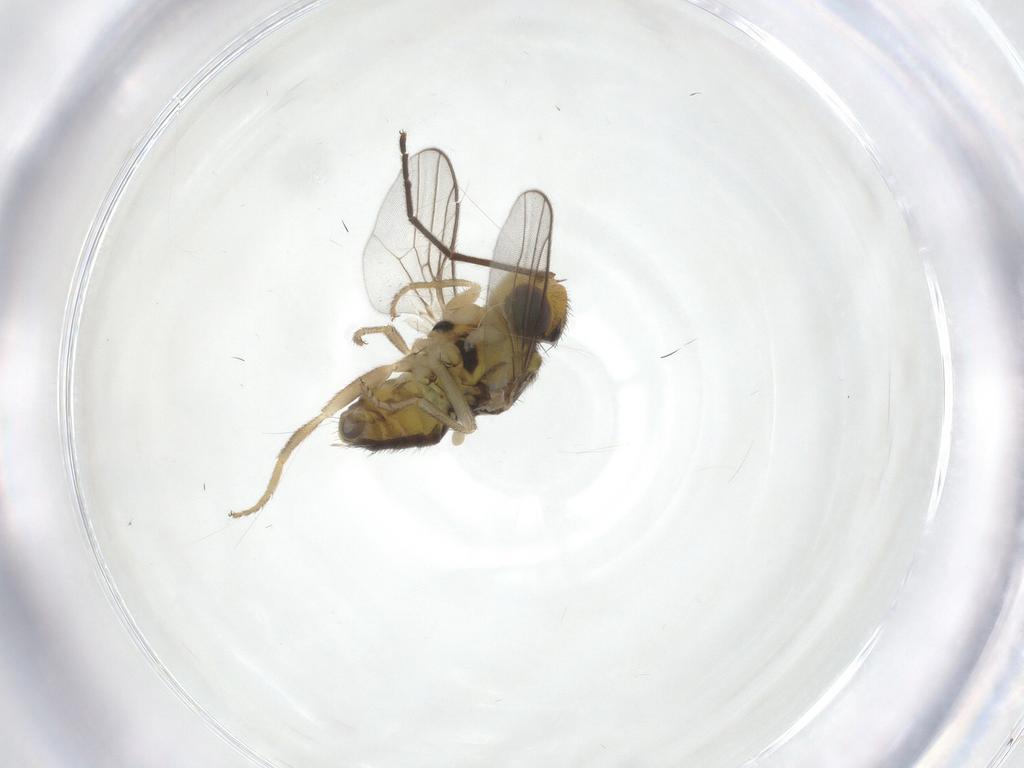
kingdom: Animalia
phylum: Arthropoda
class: Insecta
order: Diptera
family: Chloropidae
